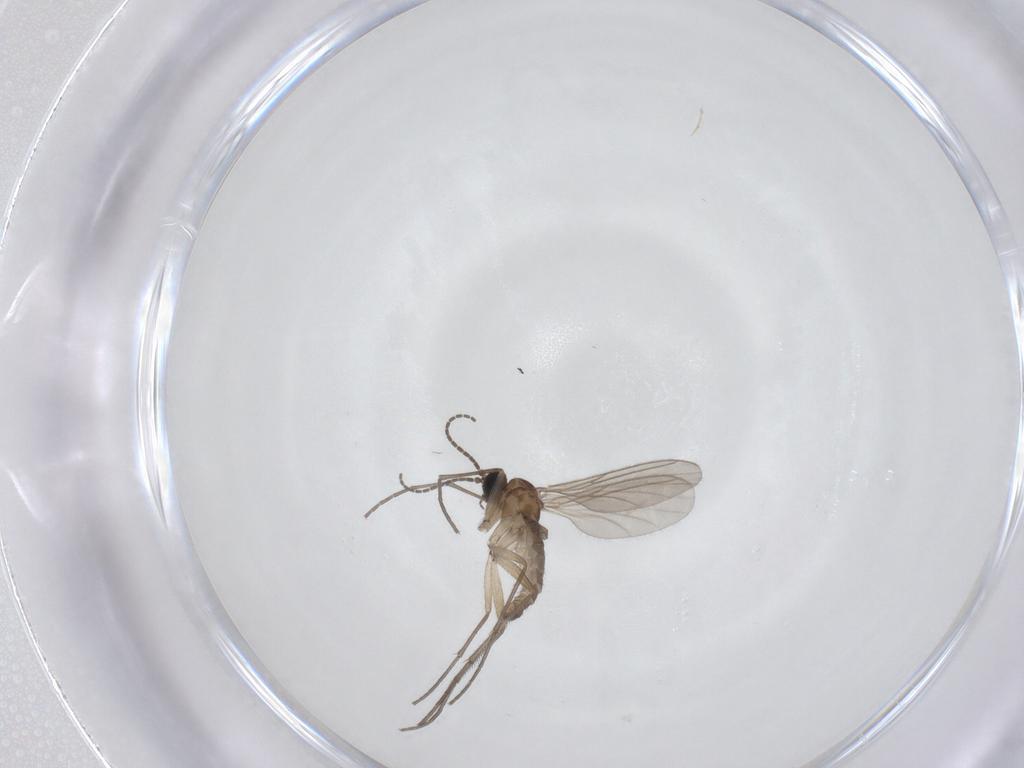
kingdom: Animalia
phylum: Arthropoda
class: Insecta
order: Diptera
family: Sciaridae
